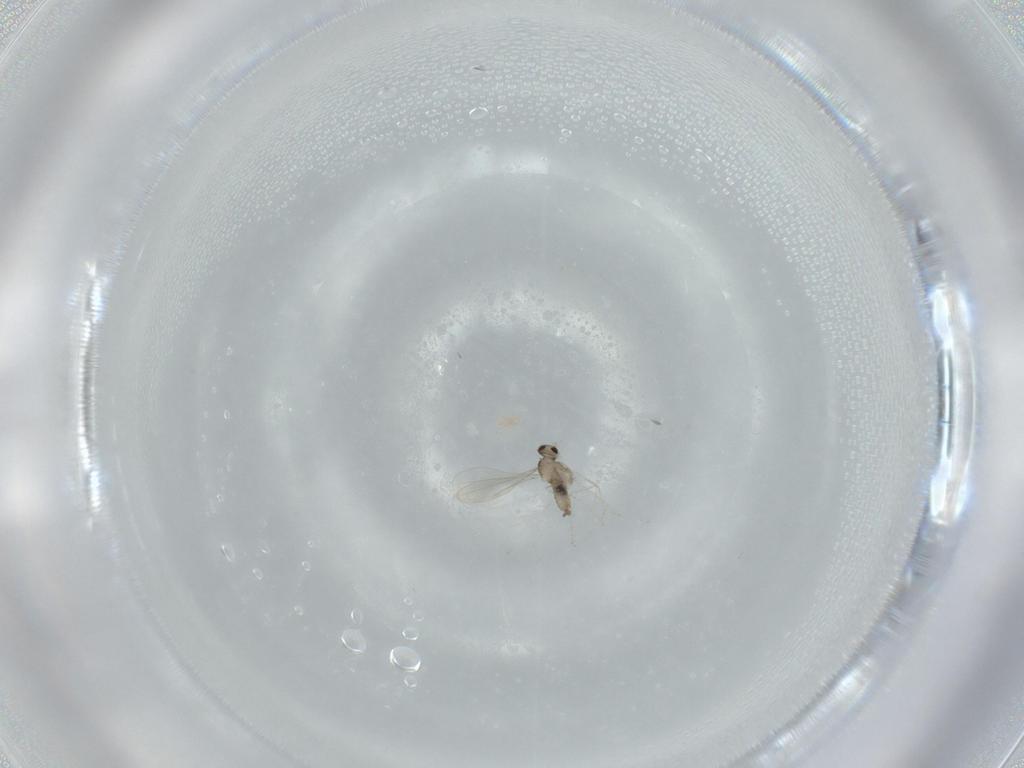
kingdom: Animalia
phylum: Arthropoda
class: Insecta
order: Diptera
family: Cecidomyiidae
